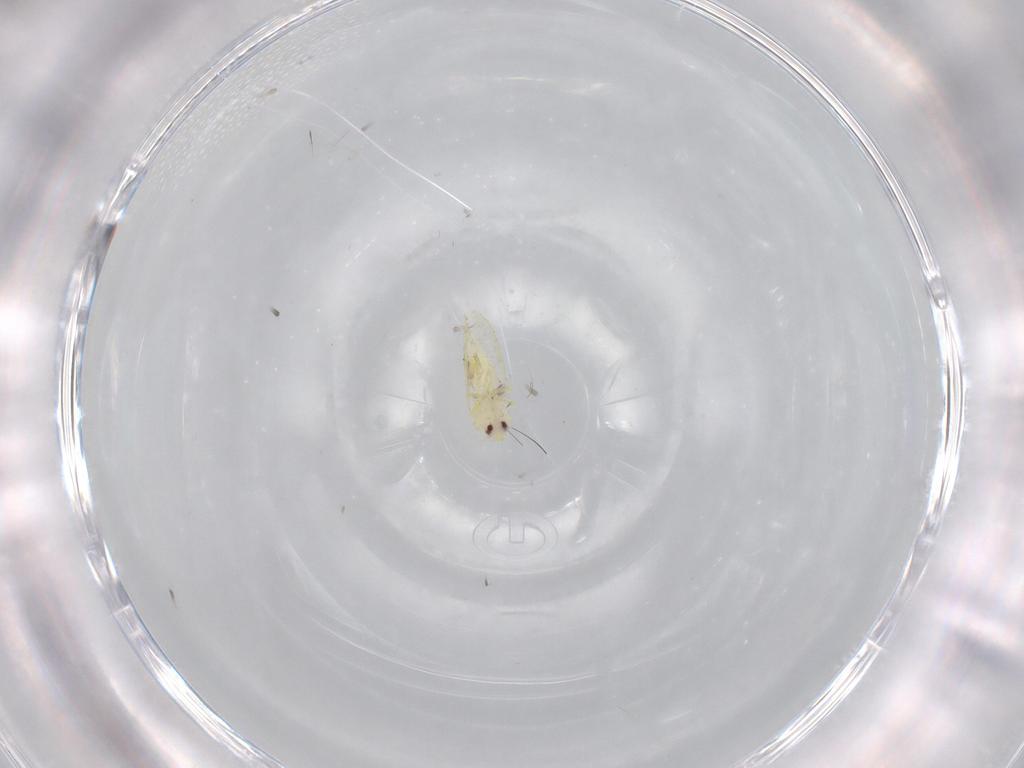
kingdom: Animalia
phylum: Arthropoda
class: Insecta
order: Hemiptera
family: Aleyrodidae
